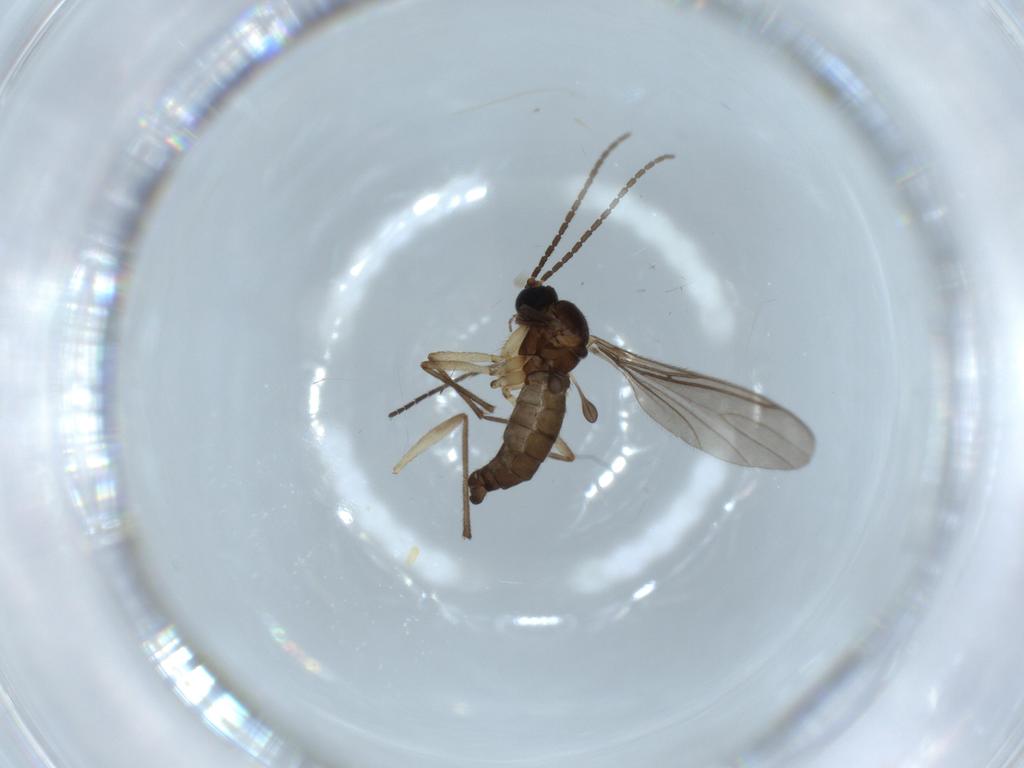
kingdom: Animalia
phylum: Arthropoda
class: Insecta
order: Diptera
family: Sciaridae
